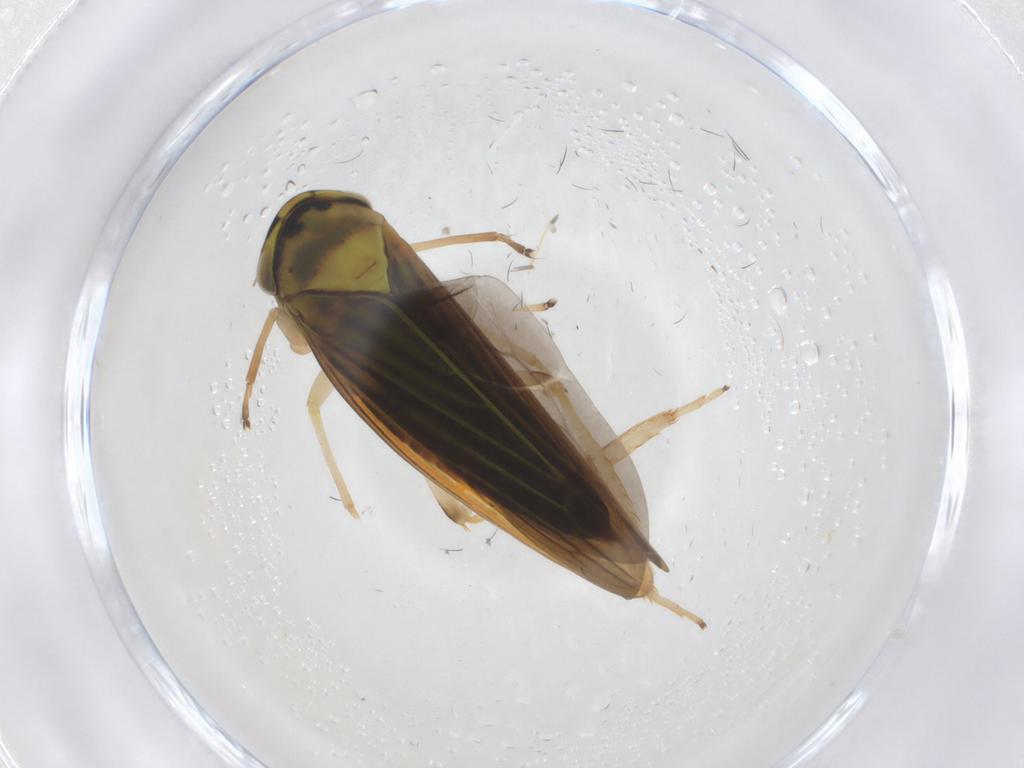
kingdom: Animalia
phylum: Arthropoda
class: Insecta
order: Hemiptera
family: Cicadellidae
